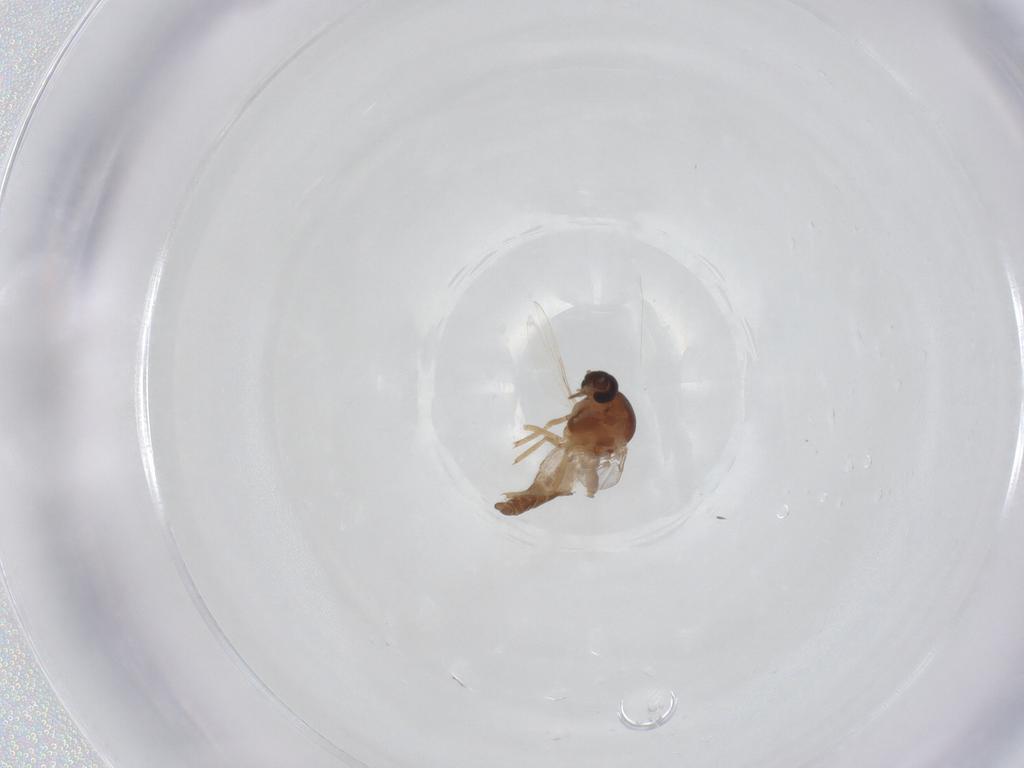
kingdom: Animalia
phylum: Arthropoda
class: Insecta
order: Diptera
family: Ceratopogonidae
